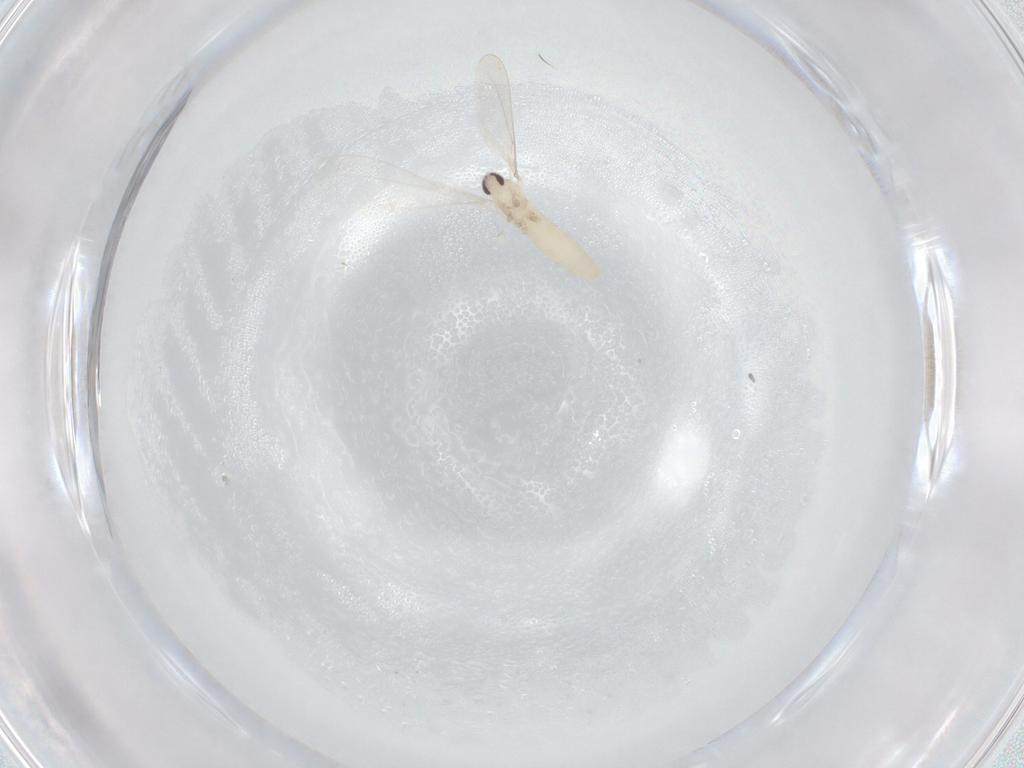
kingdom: Animalia
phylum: Arthropoda
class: Insecta
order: Diptera
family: Cecidomyiidae
